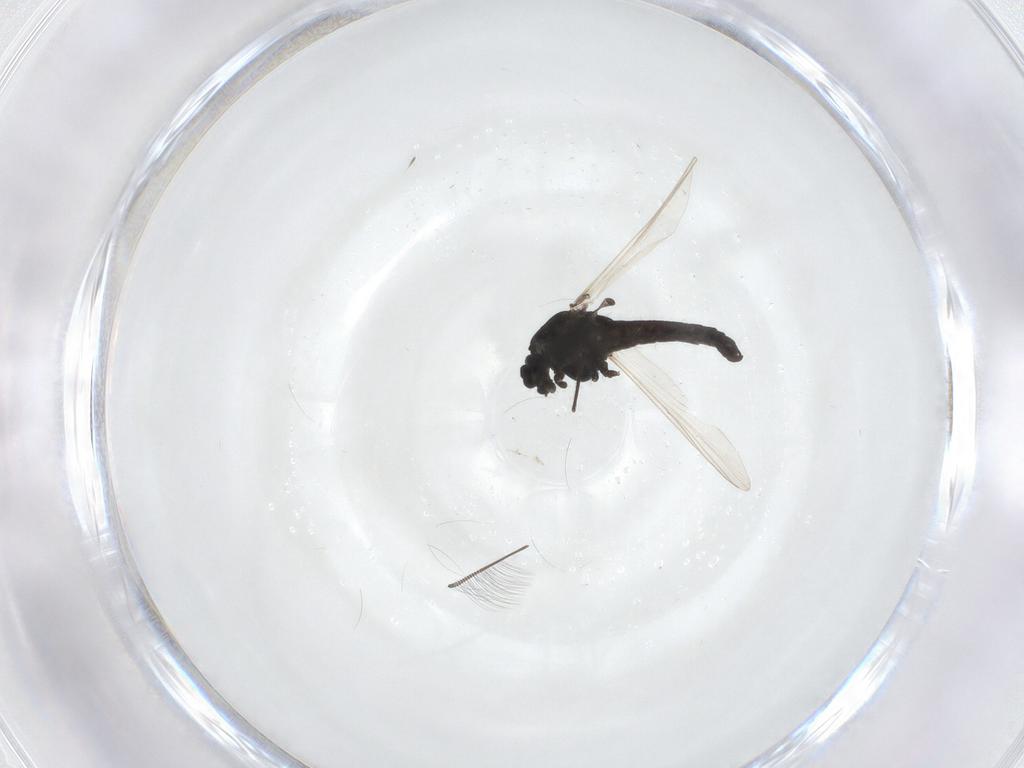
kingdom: Animalia
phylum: Arthropoda
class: Insecta
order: Diptera
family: Chironomidae
